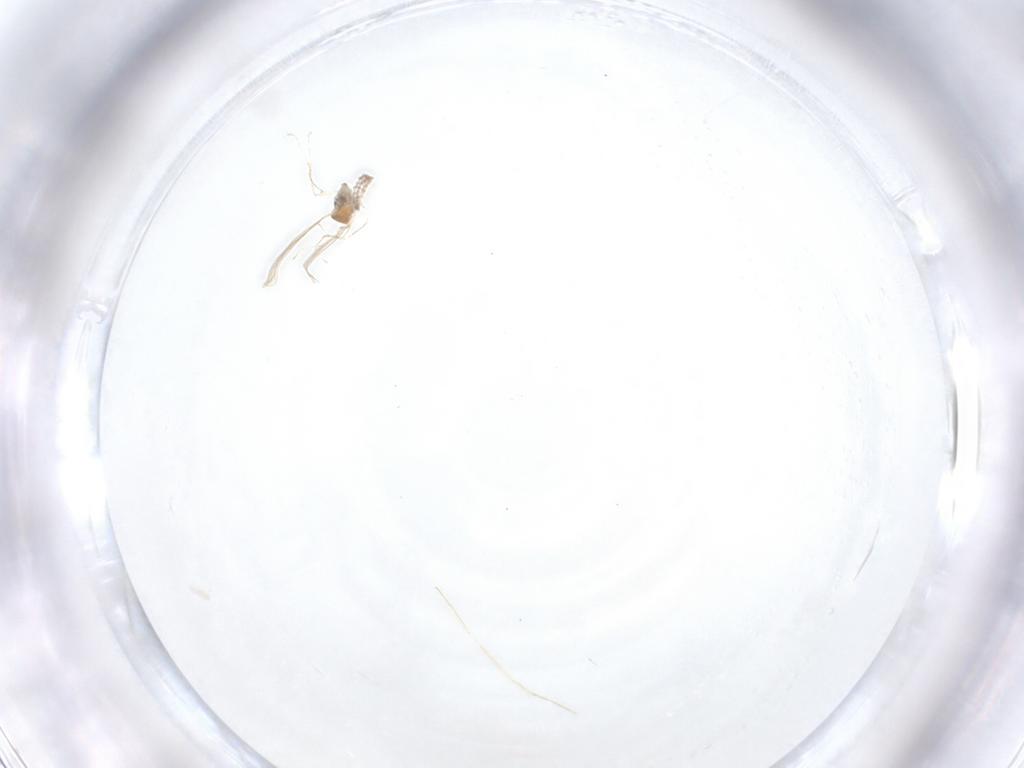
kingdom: Animalia
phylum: Arthropoda
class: Insecta
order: Diptera
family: Cecidomyiidae
